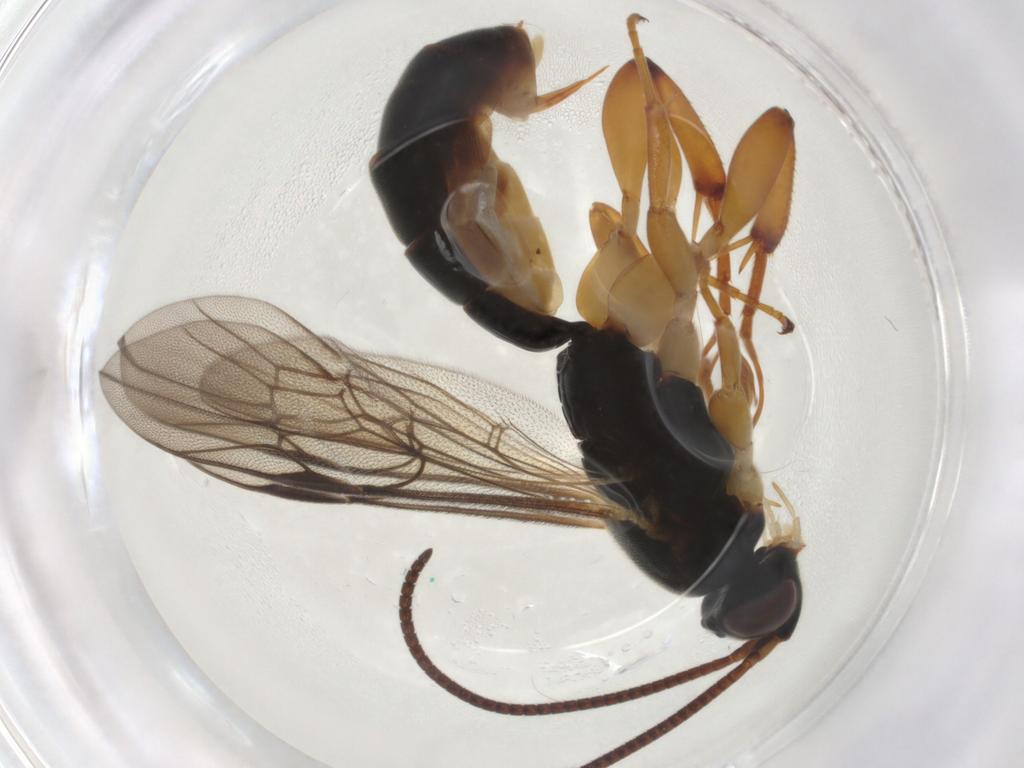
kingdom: Animalia
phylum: Arthropoda
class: Insecta
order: Hymenoptera
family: Ichneumonidae
